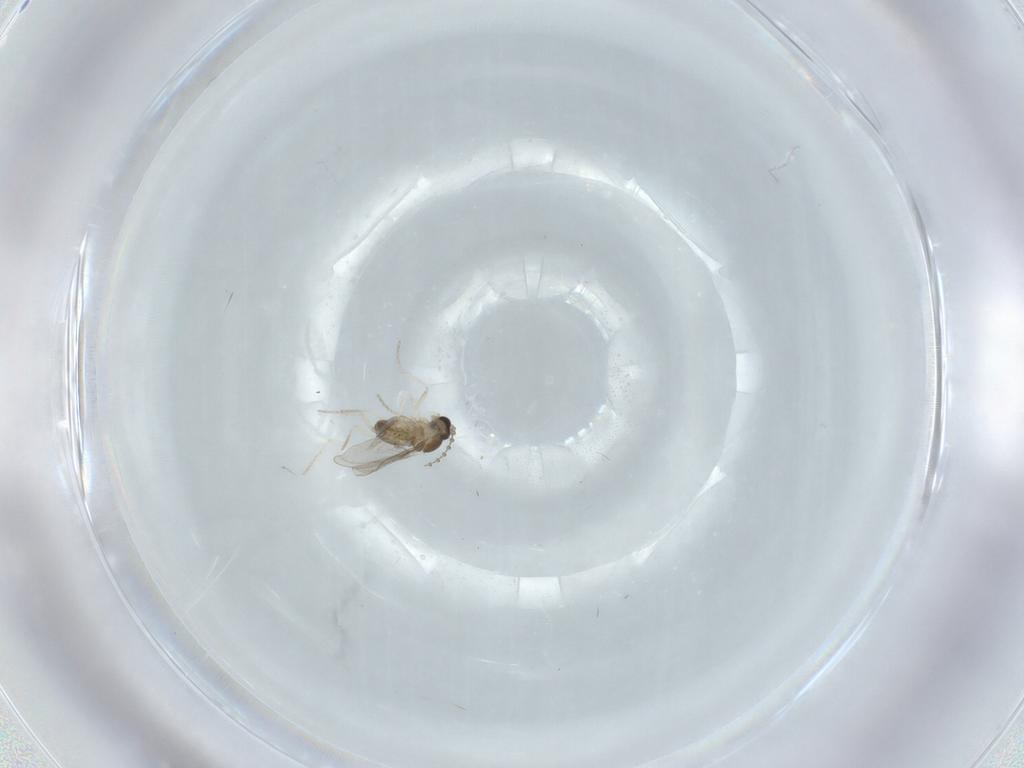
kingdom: Animalia
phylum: Arthropoda
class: Insecta
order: Diptera
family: Cecidomyiidae
